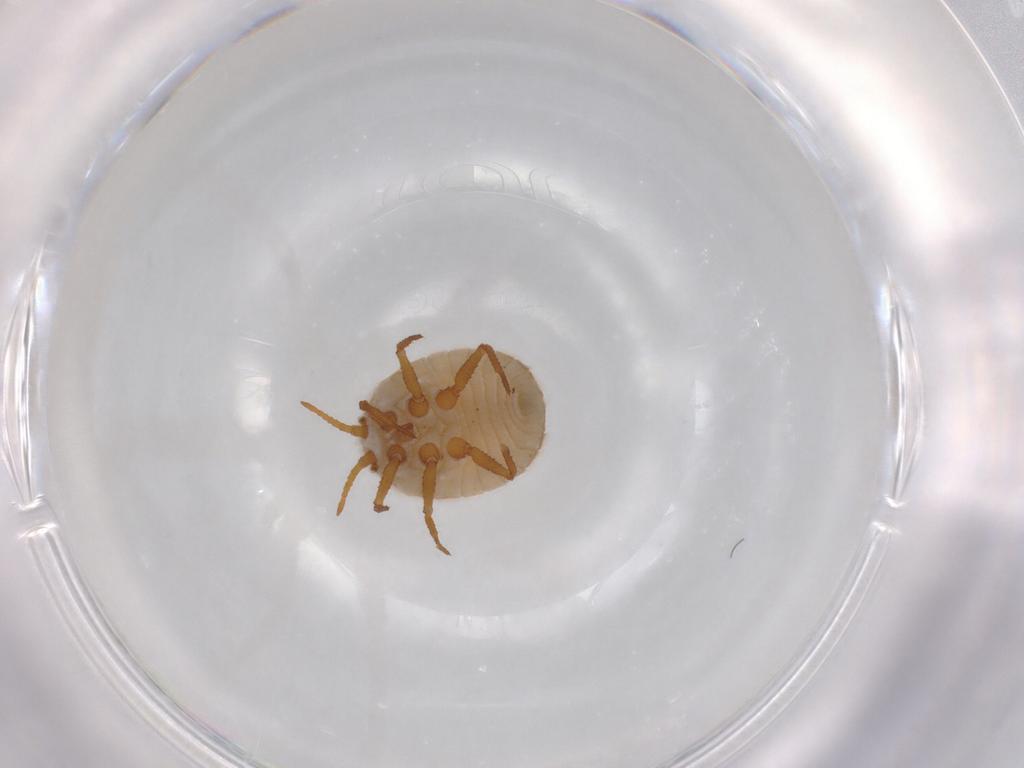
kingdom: Animalia
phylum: Arthropoda
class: Insecta
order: Hemiptera
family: Ortheziidae
